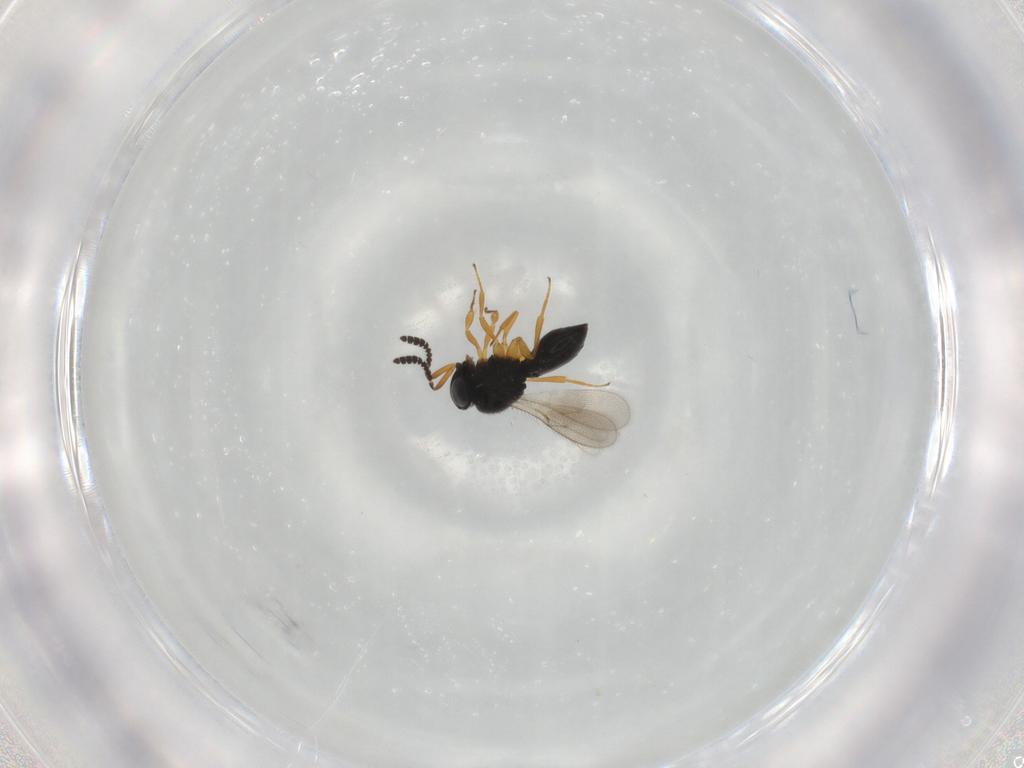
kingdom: Animalia
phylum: Arthropoda
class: Insecta
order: Hymenoptera
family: Scelionidae
